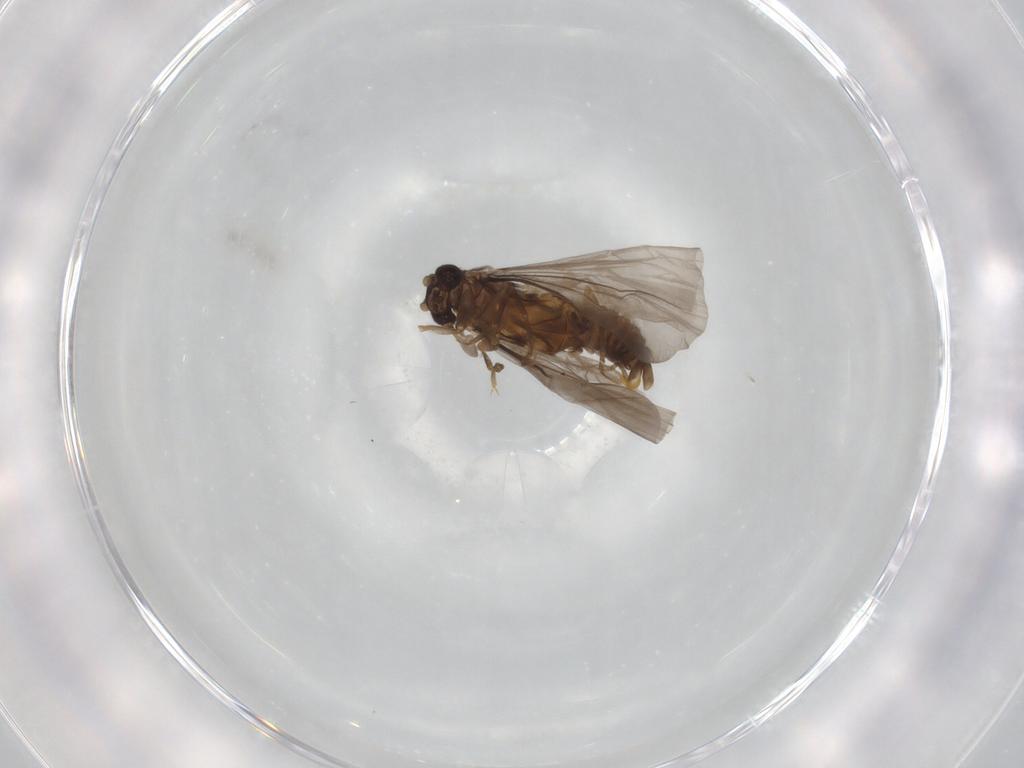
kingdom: Animalia
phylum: Arthropoda
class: Insecta
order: Strepsiptera
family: Mengenillidae
